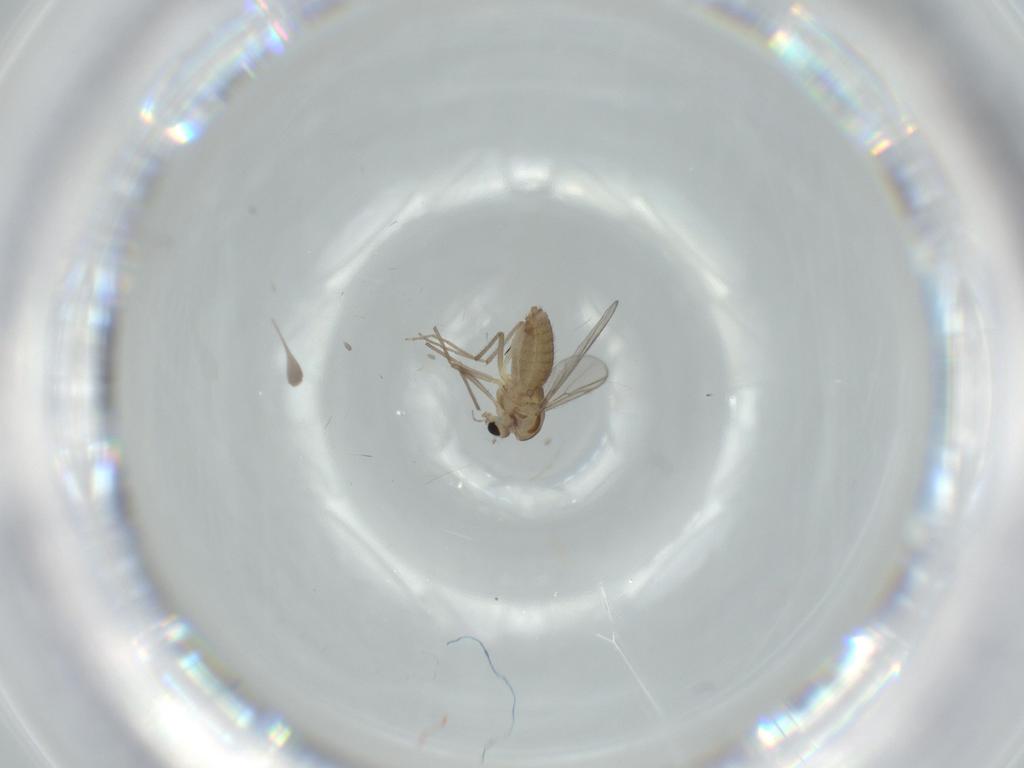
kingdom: Animalia
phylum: Arthropoda
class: Insecta
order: Diptera
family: Chironomidae
